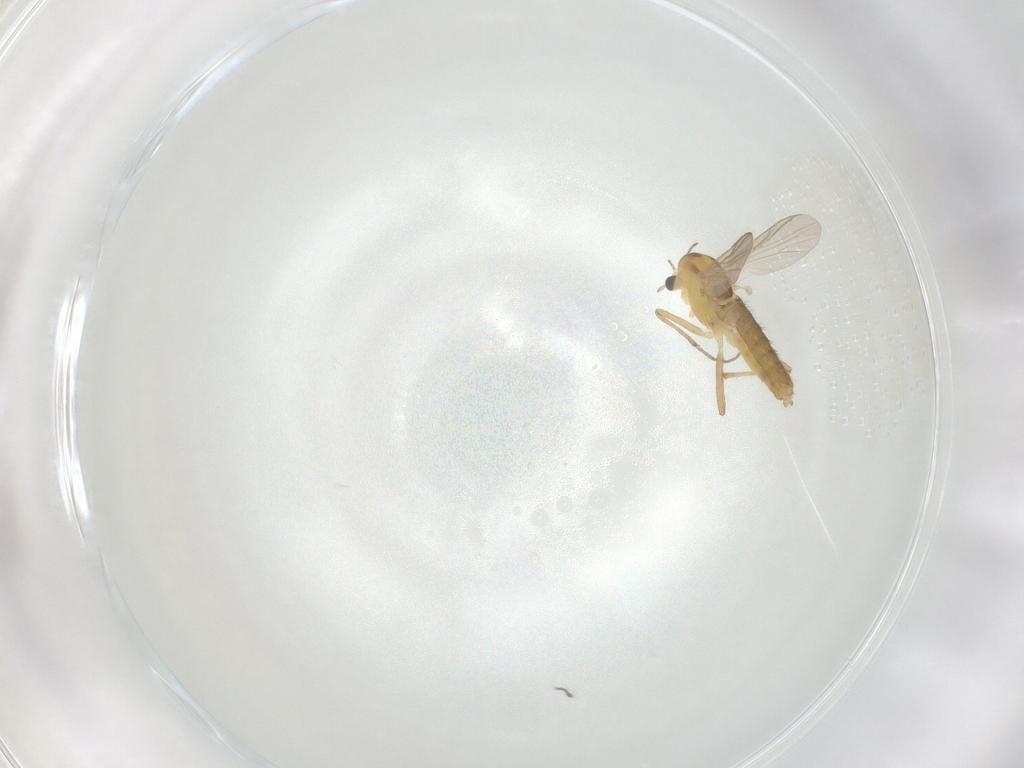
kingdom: Animalia
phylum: Arthropoda
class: Insecta
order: Diptera
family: Chironomidae
